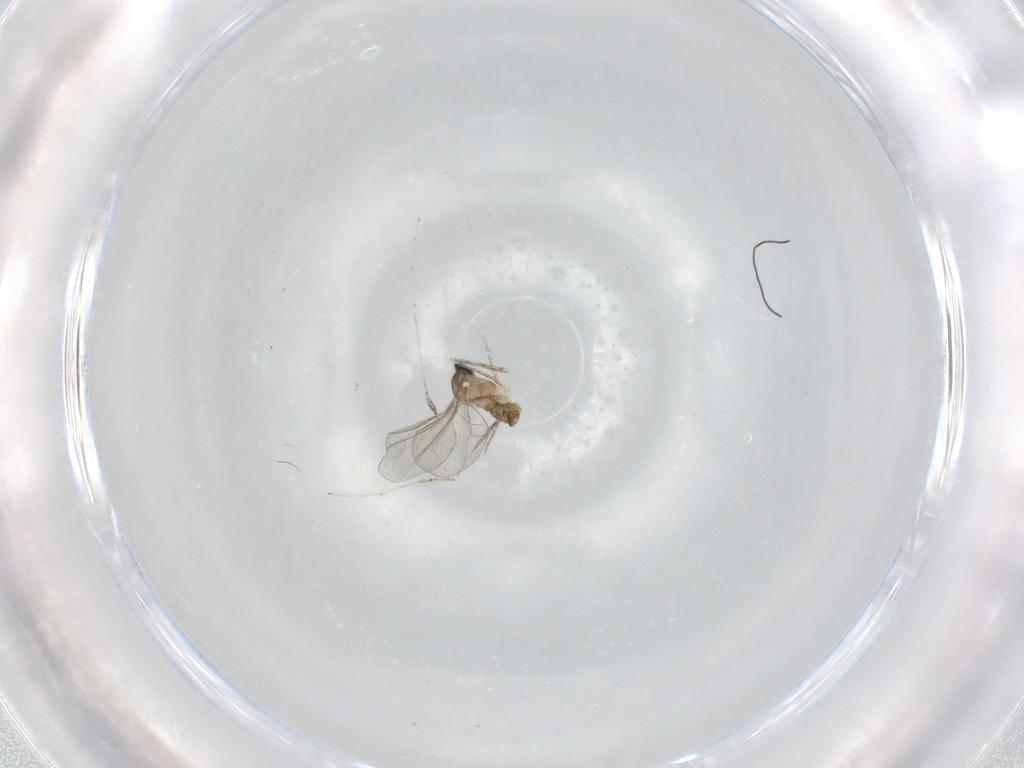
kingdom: Animalia
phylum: Arthropoda
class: Insecta
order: Diptera
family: Cecidomyiidae
